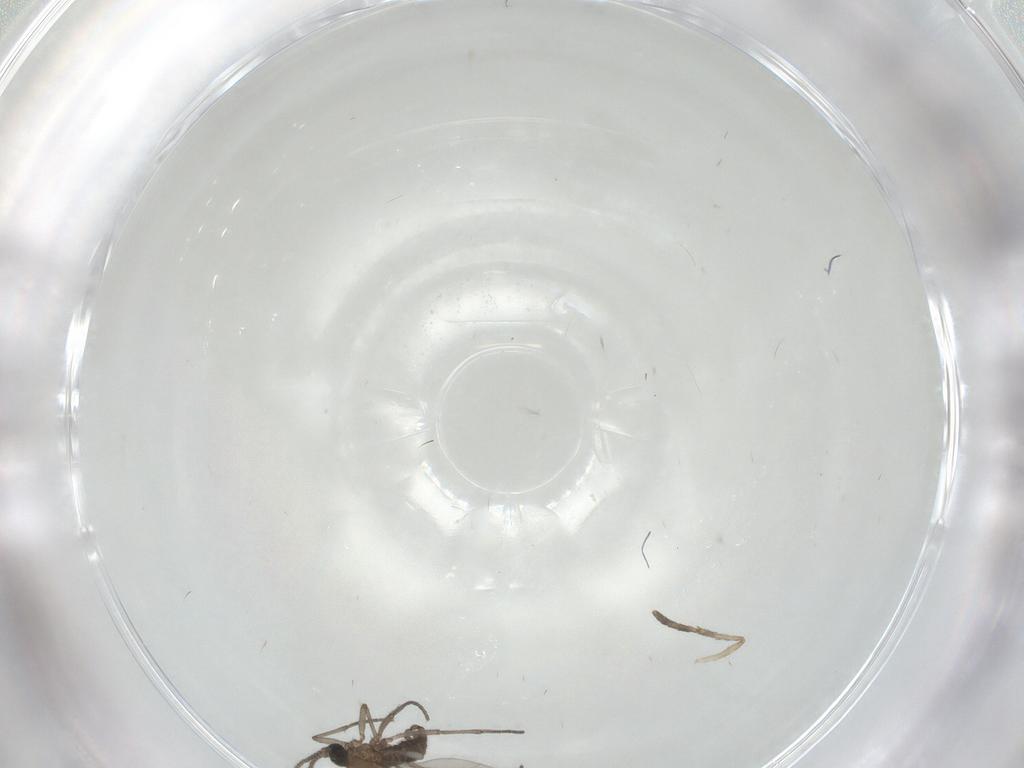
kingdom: Animalia
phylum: Arthropoda
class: Insecta
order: Diptera
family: Sciaridae
